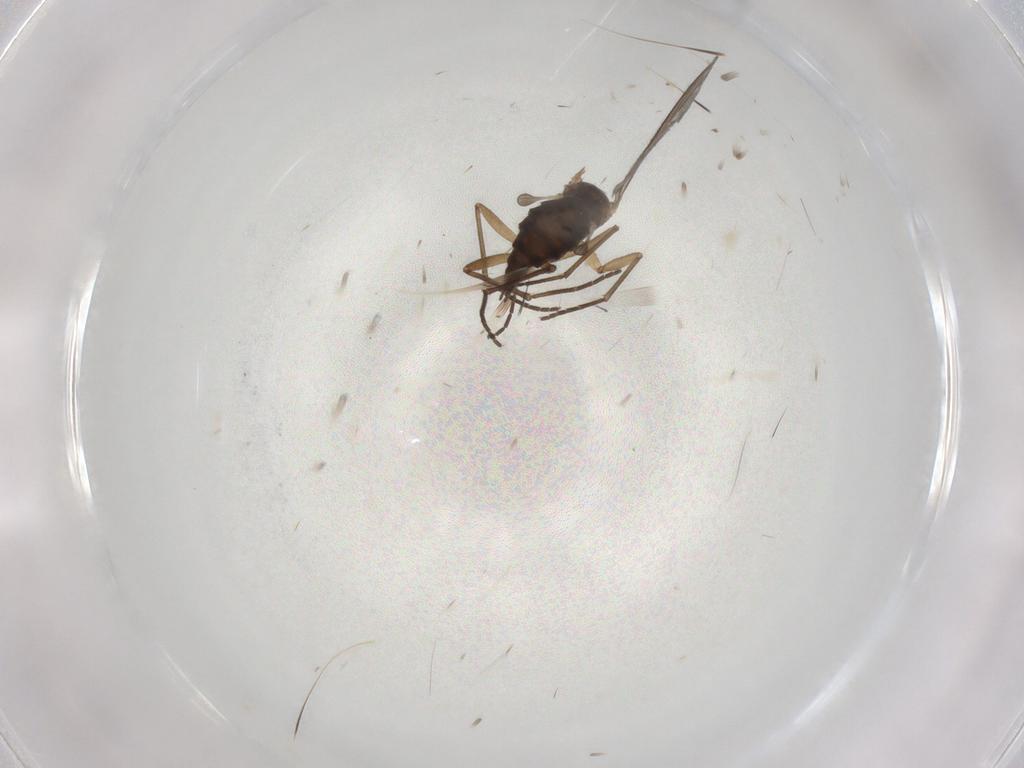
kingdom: Animalia
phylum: Arthropoda
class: Insecta
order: Diptera
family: Sciaridae
